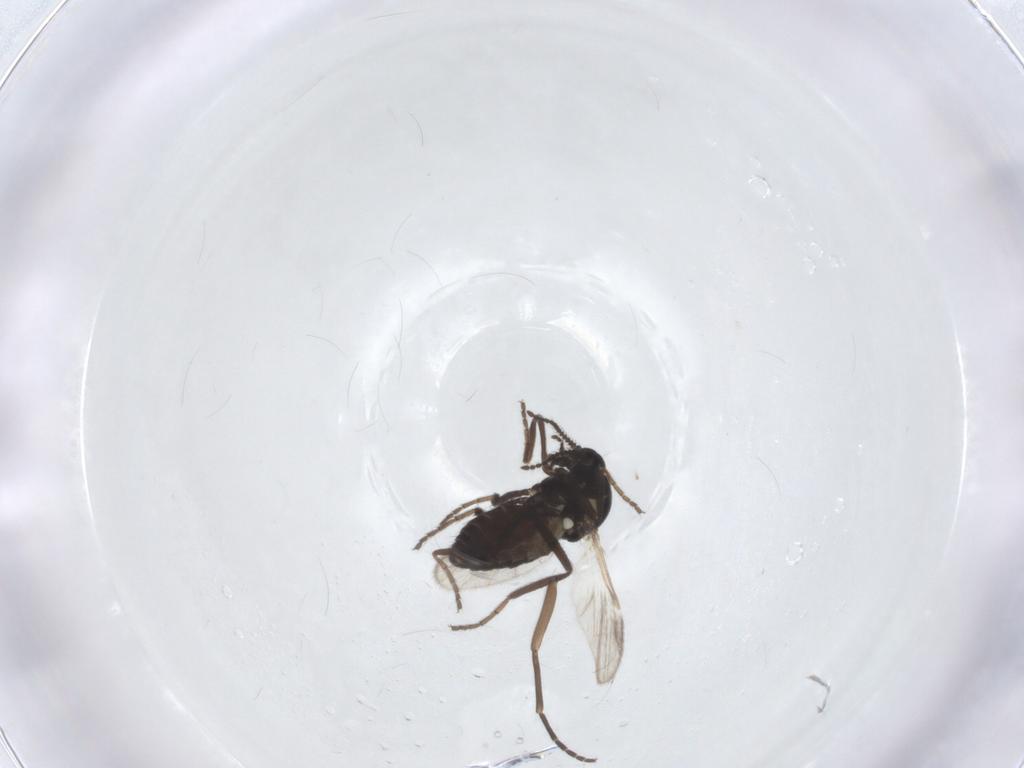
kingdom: Animalia
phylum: Arthropoda
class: Insecta
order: Diptera
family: Sciaridae
